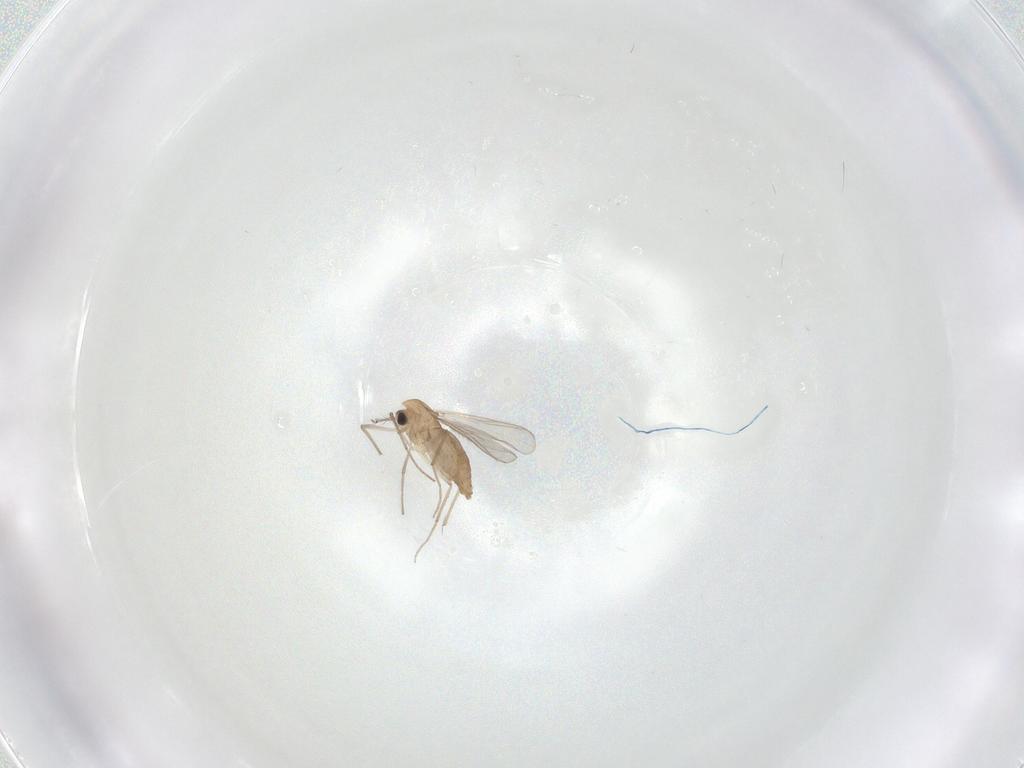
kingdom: Animalia
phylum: Arthropoda
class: Insecta
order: Diptera
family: Chironomidae
